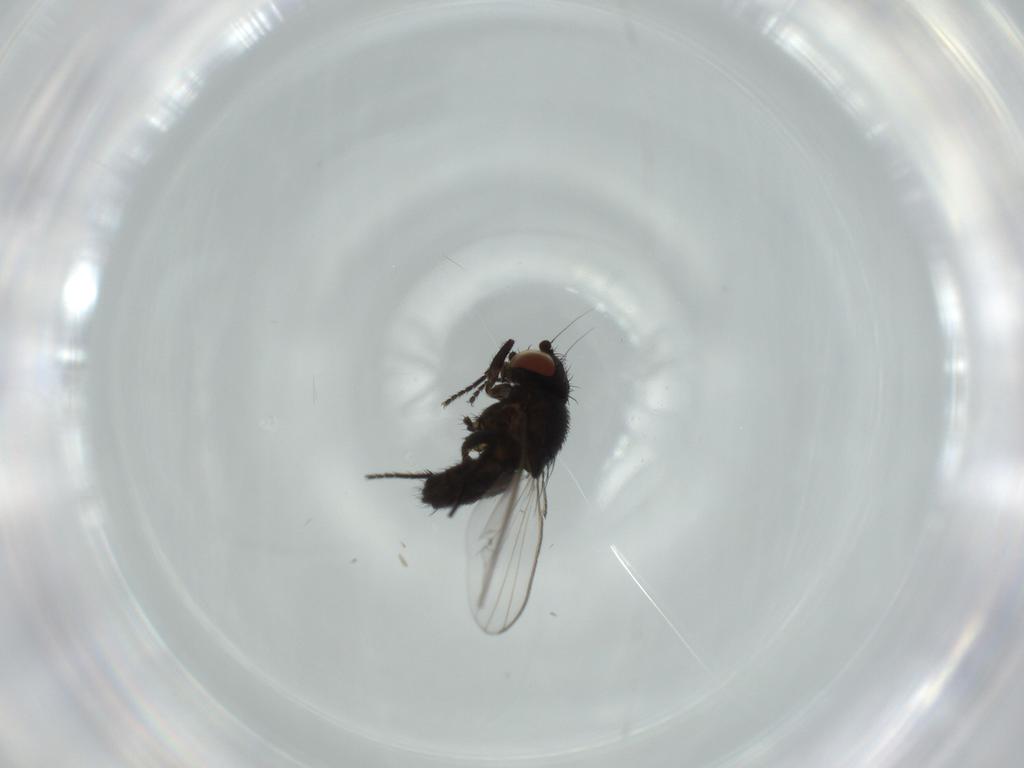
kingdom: Animalia
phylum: Arthropoda
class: Insecta
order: Diptera
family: Milichiidae
